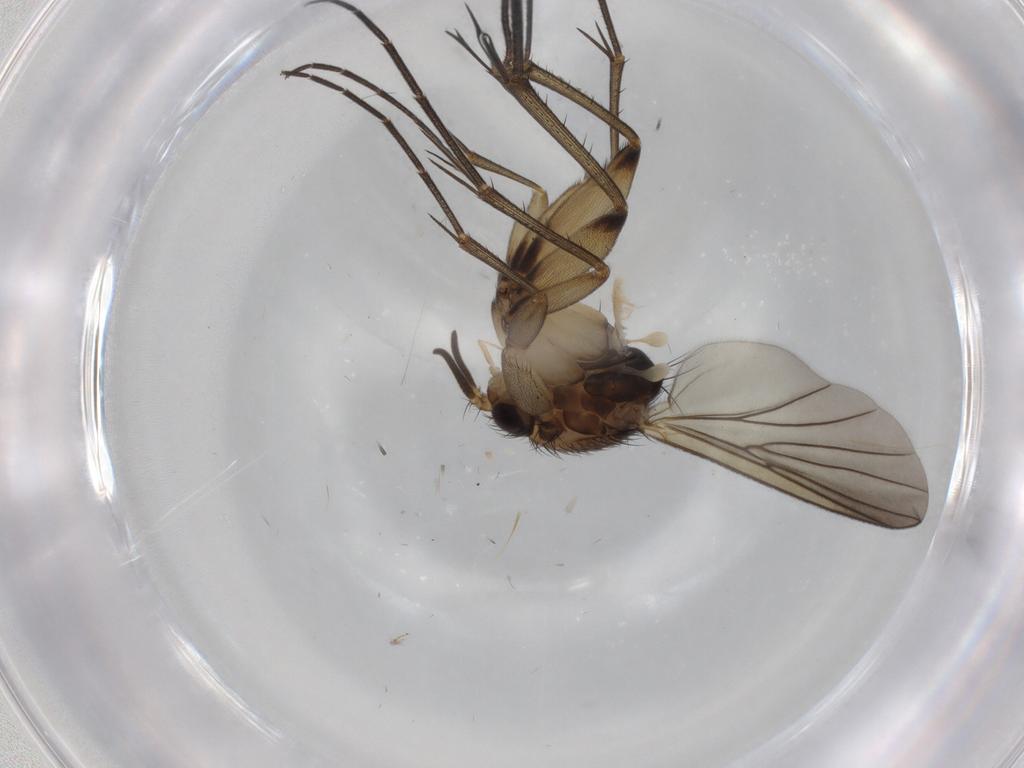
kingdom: Animalia
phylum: Arthropoda
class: Insecta
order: Diptera
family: Mycetophilidae
